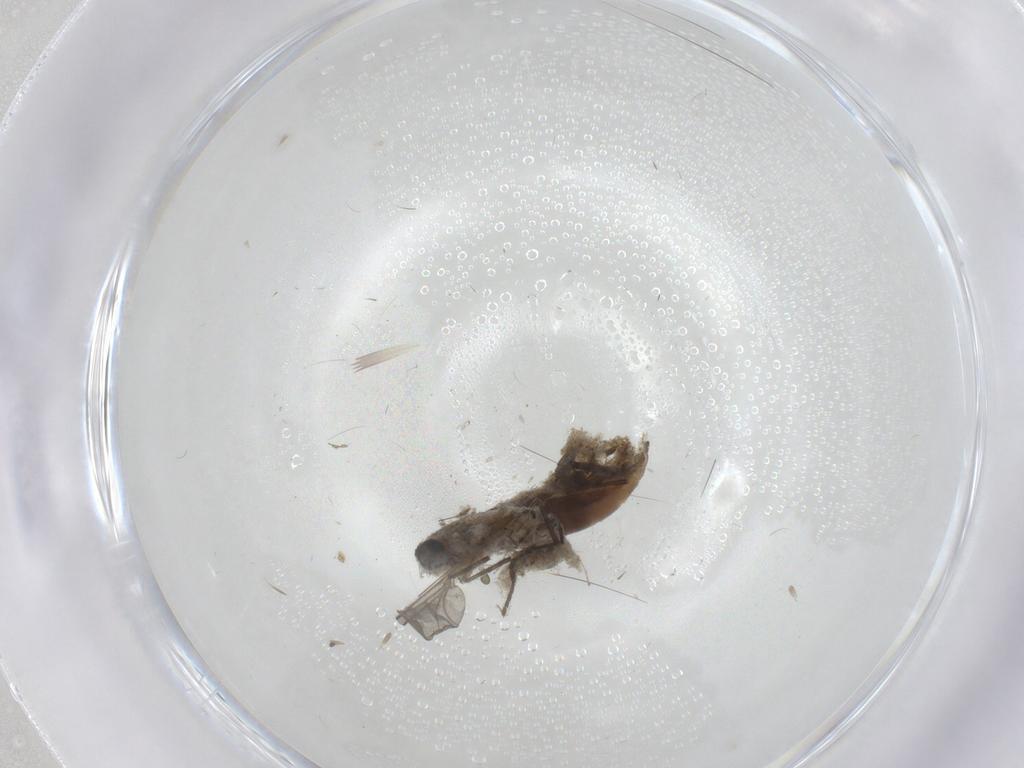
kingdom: Animalia
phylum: Arthropoda
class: Insecta
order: Diptera
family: Chironomidae
